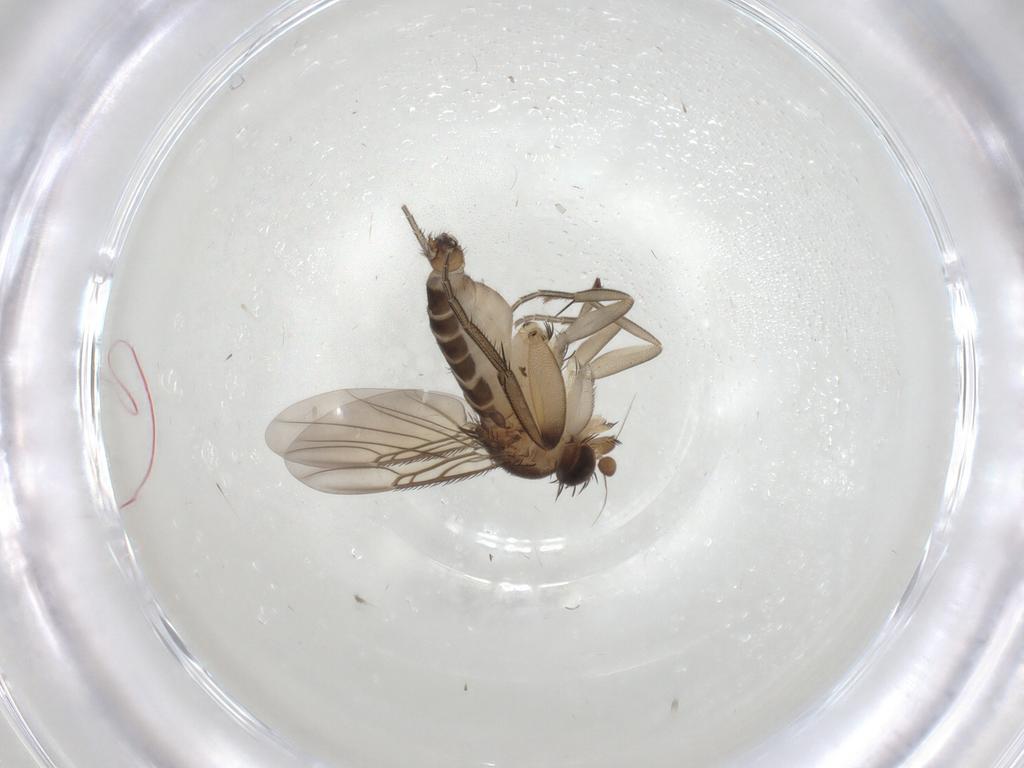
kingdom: Animalia
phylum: Arthropoda
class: Insecta
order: Diptera
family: Phoridae
